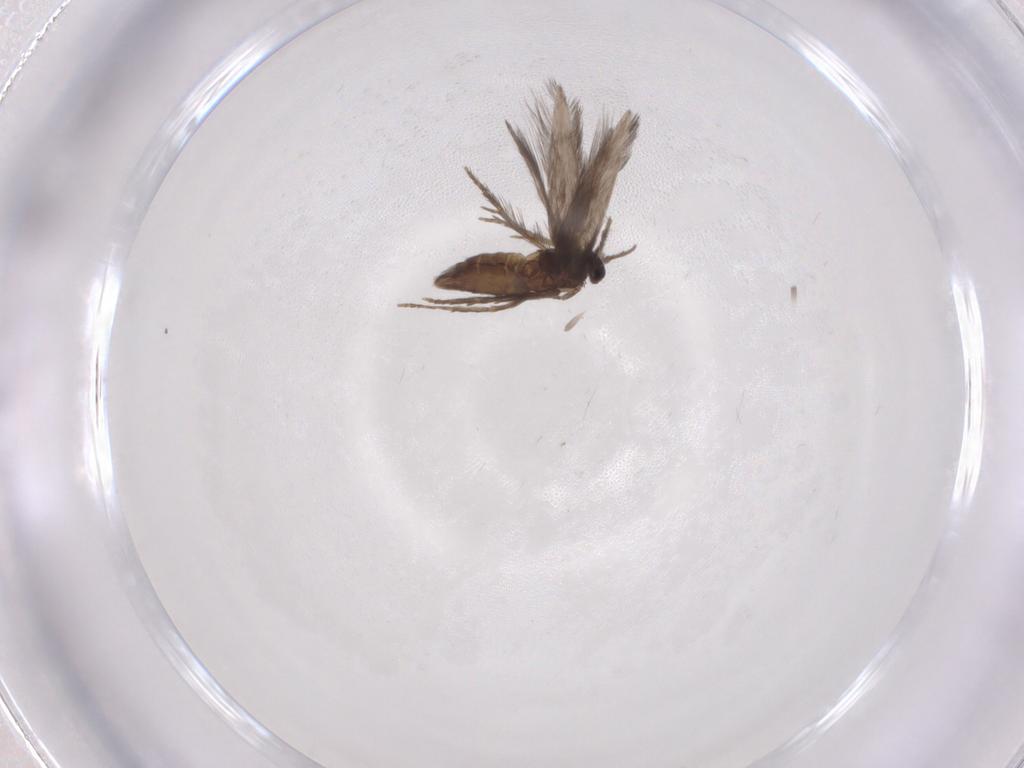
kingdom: Animalia
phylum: Arthropoda
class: Insecta
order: Trichoptera
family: Hydroptilidae
